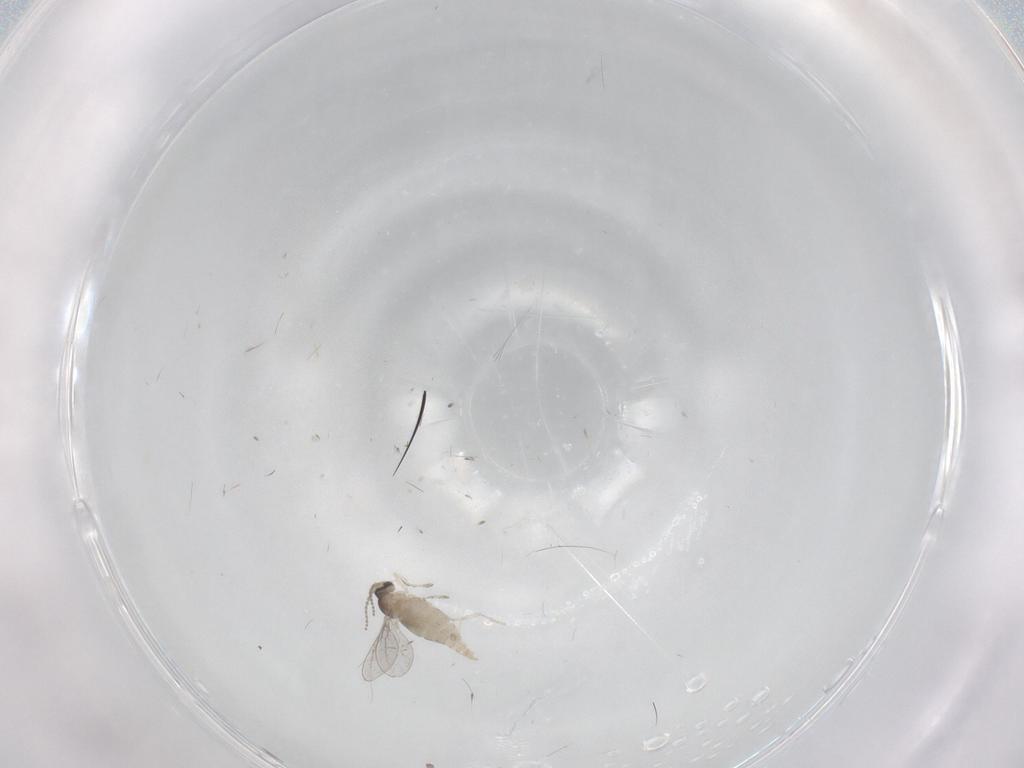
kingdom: Animalia
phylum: Arthropoda
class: Insecta
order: Diptera
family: Cecidomyiidae
